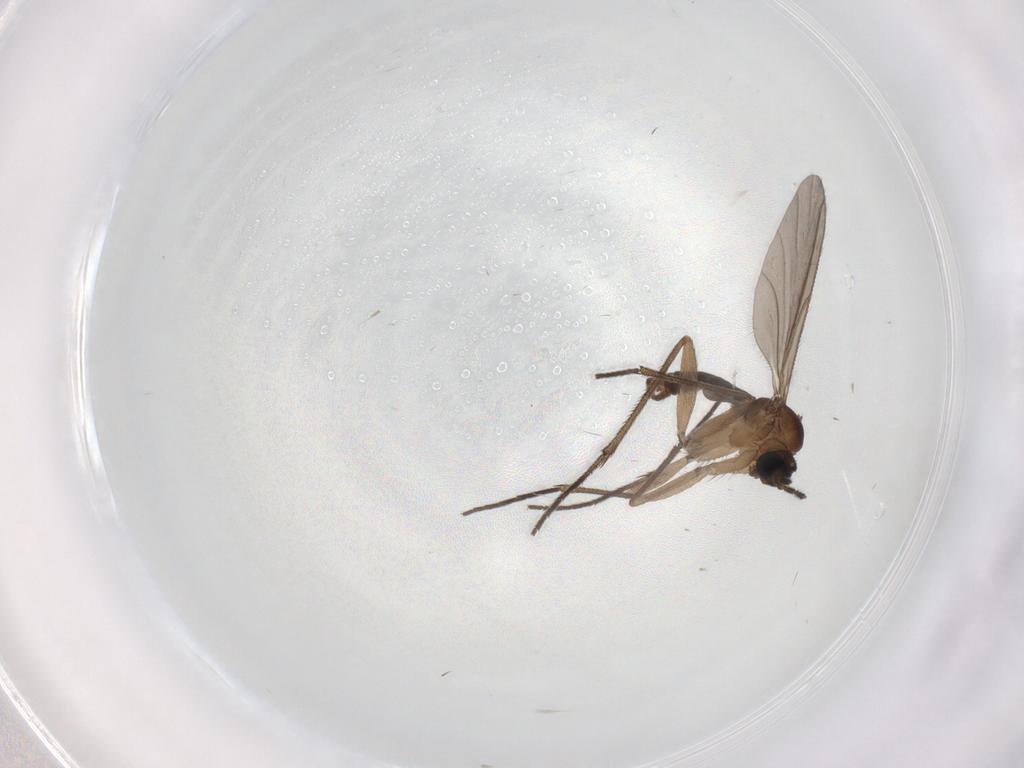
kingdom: Animalia
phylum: Arthropoda
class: Insecta
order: Diptera
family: Sciaridae
